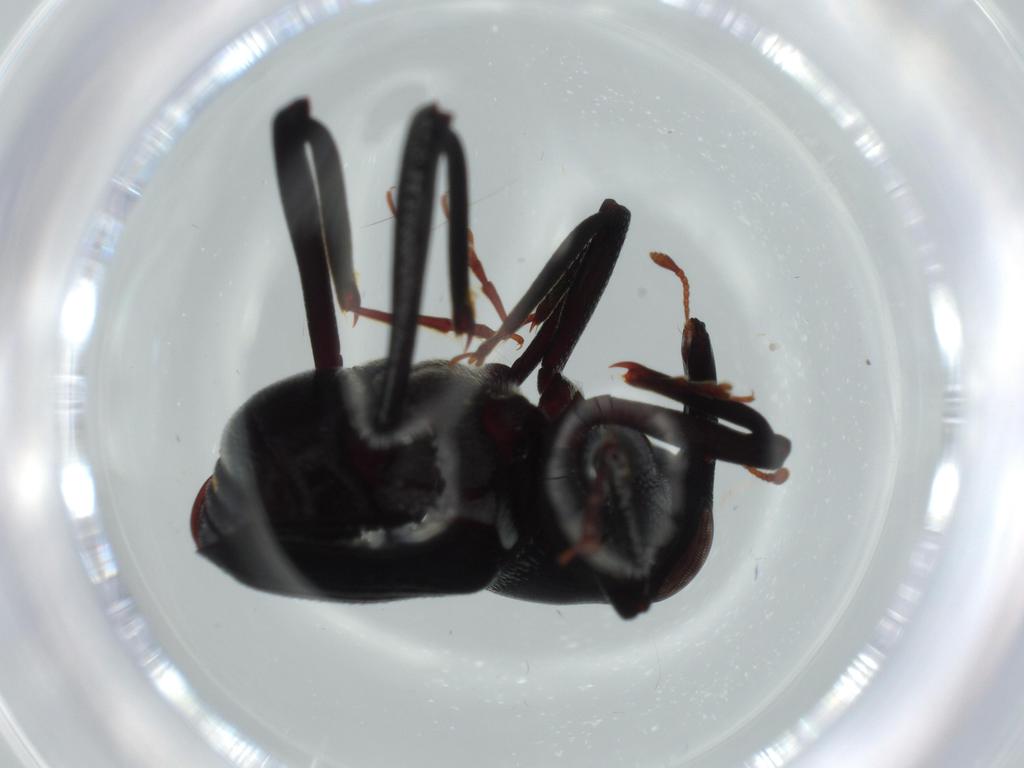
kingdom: Animalia
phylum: Arthropoda
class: Insecta
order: Coleoptera
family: Curculionidae
